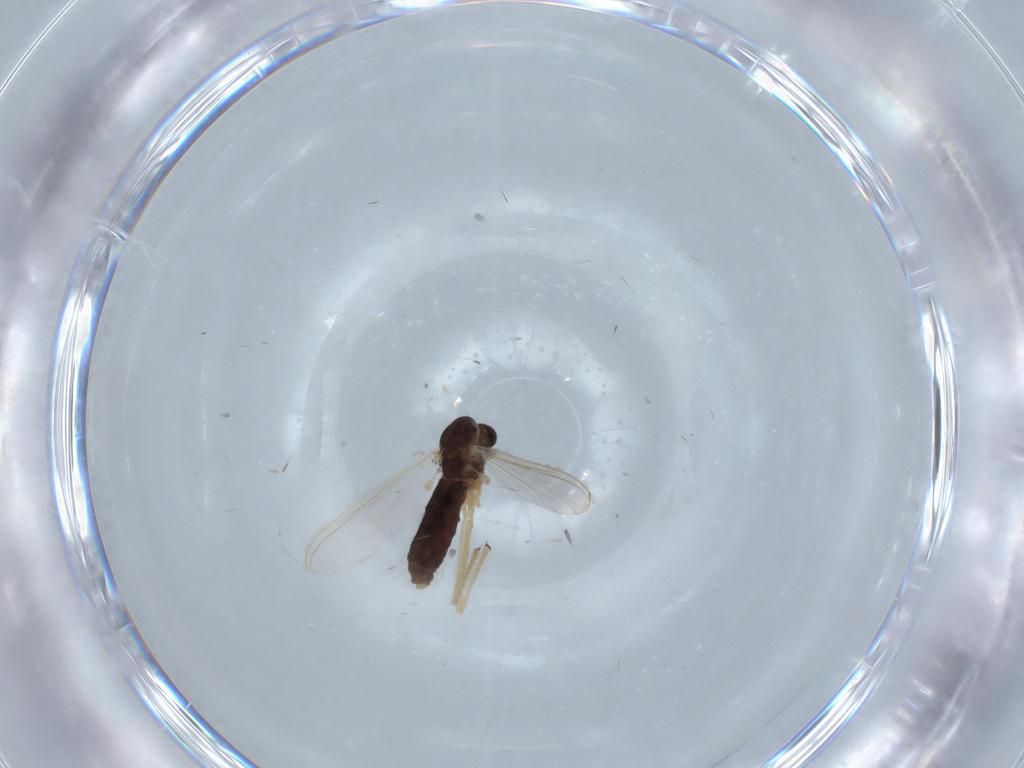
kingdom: Animalia
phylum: Arthropoda
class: Insecta
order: Diptera
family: Chironomidae
